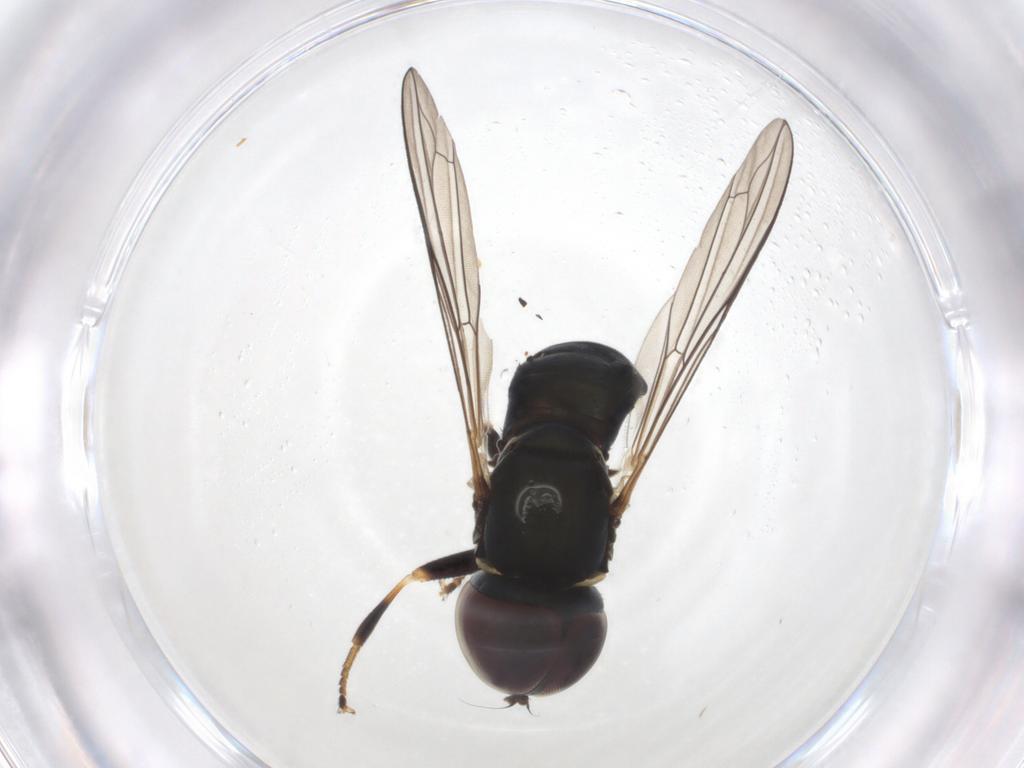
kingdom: Animalia
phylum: Arthropoda
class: Insecta
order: Diptera
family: Pipunculidae
